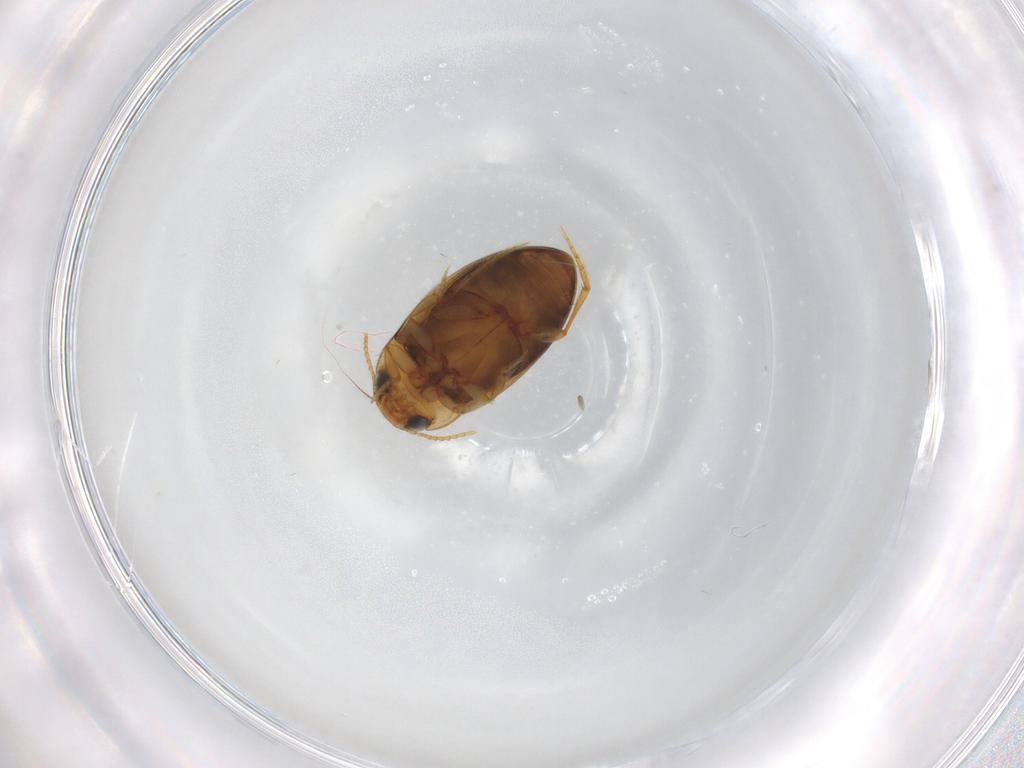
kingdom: Animalia
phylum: Arthropoda
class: Insecta
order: Coleoptera
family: Dytiscidae
